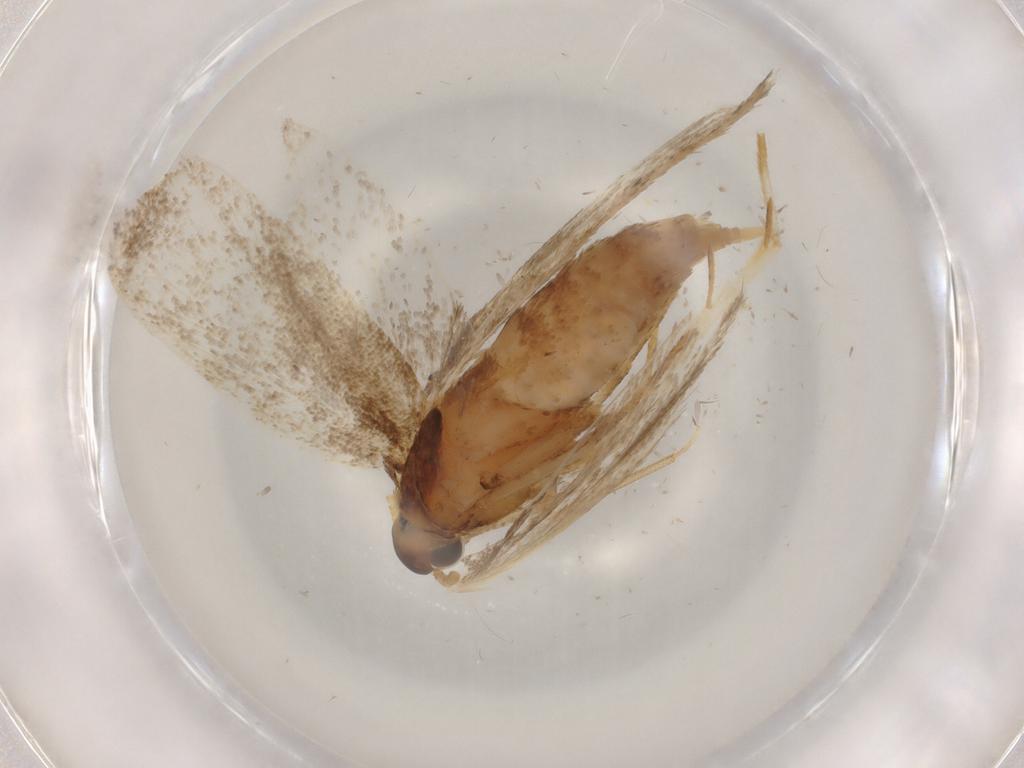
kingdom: Animalia
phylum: Arthropoda
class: Insecta
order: Lepidoptera
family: Lecithoceridae
